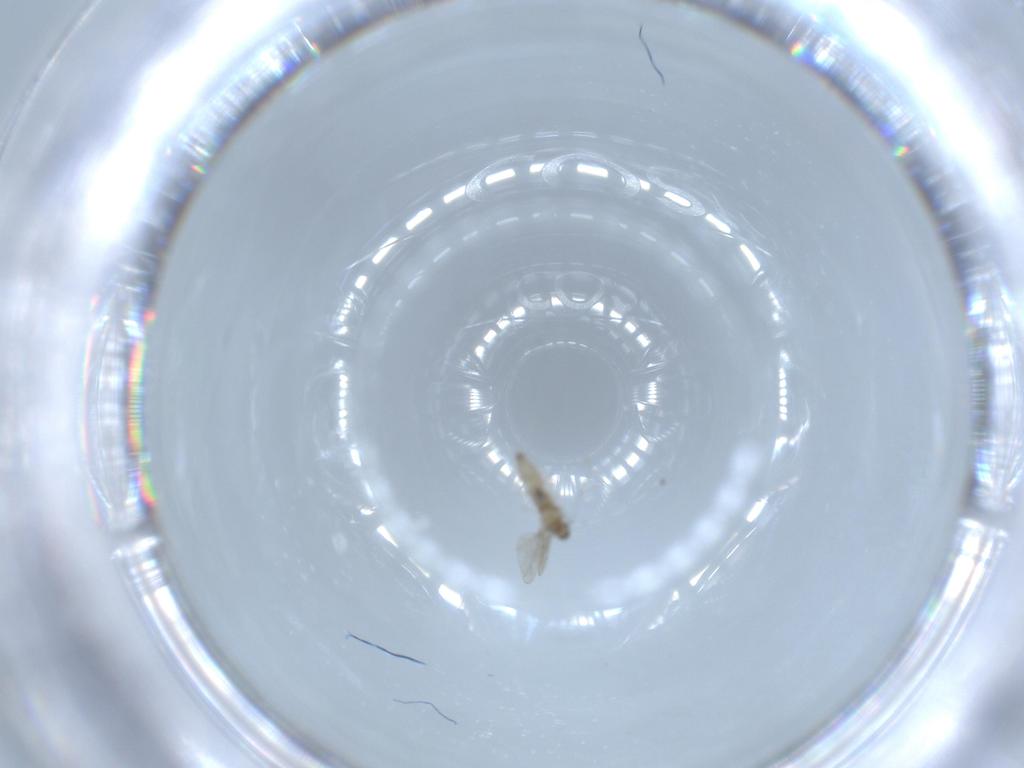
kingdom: Animalia
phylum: Arthropoda
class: Insecta
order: Diptera
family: Cecidomyiidae
